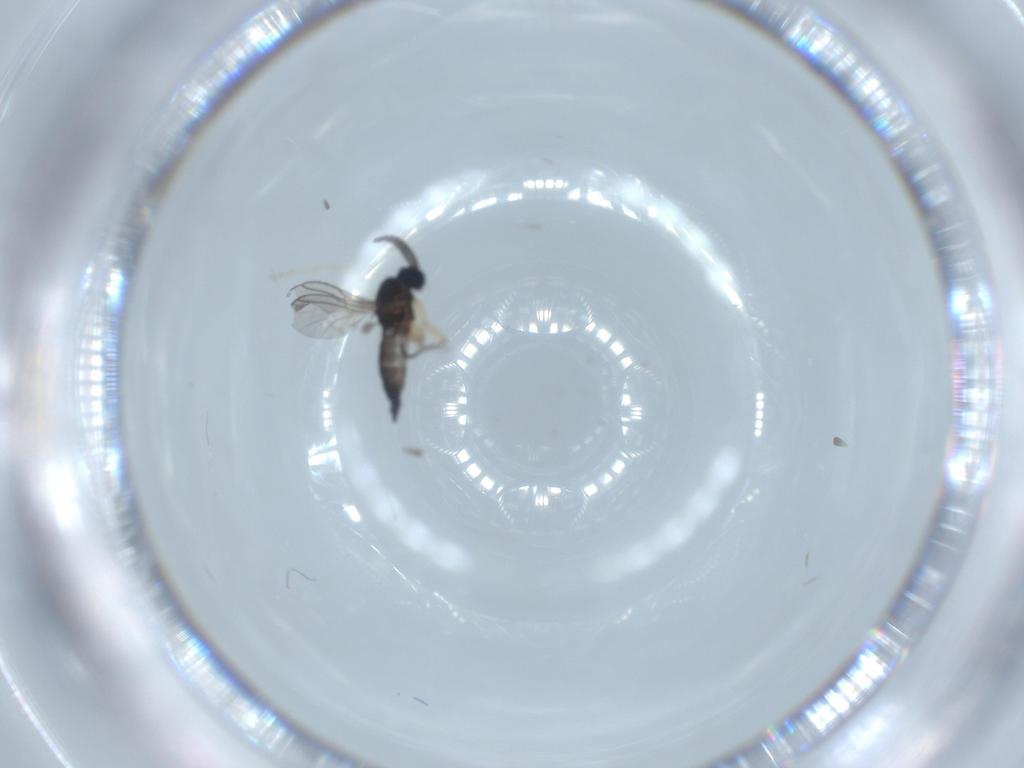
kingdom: Animalia
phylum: Arthropoda
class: Insecta
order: Diptera
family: Sciaridae
